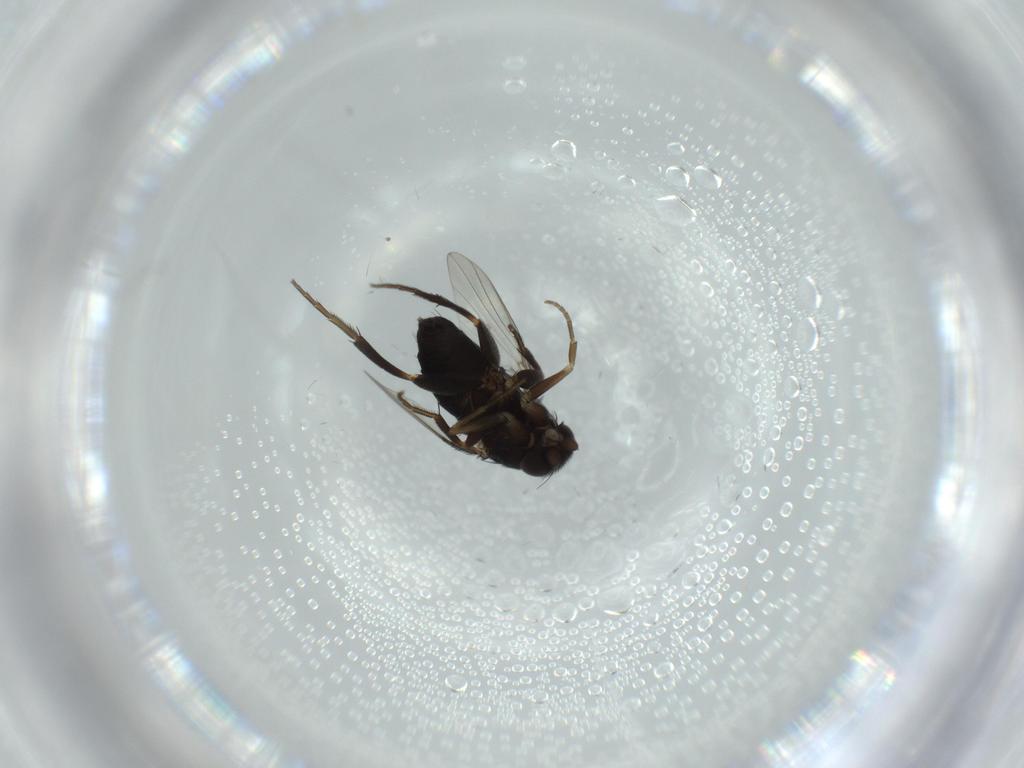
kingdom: Animalia
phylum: Arthropoda
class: Insecta
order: Diptera
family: Phoridae
